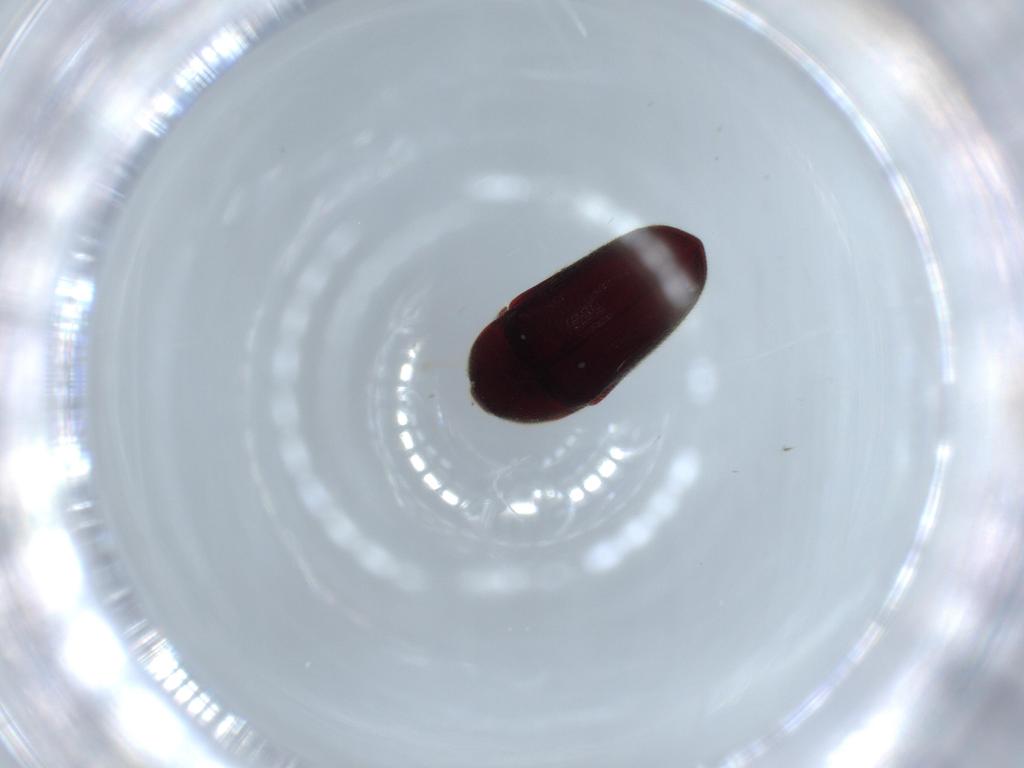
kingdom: Animalia
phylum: Arthropoda
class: Insecta
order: Coleoptera
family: Throscidae
